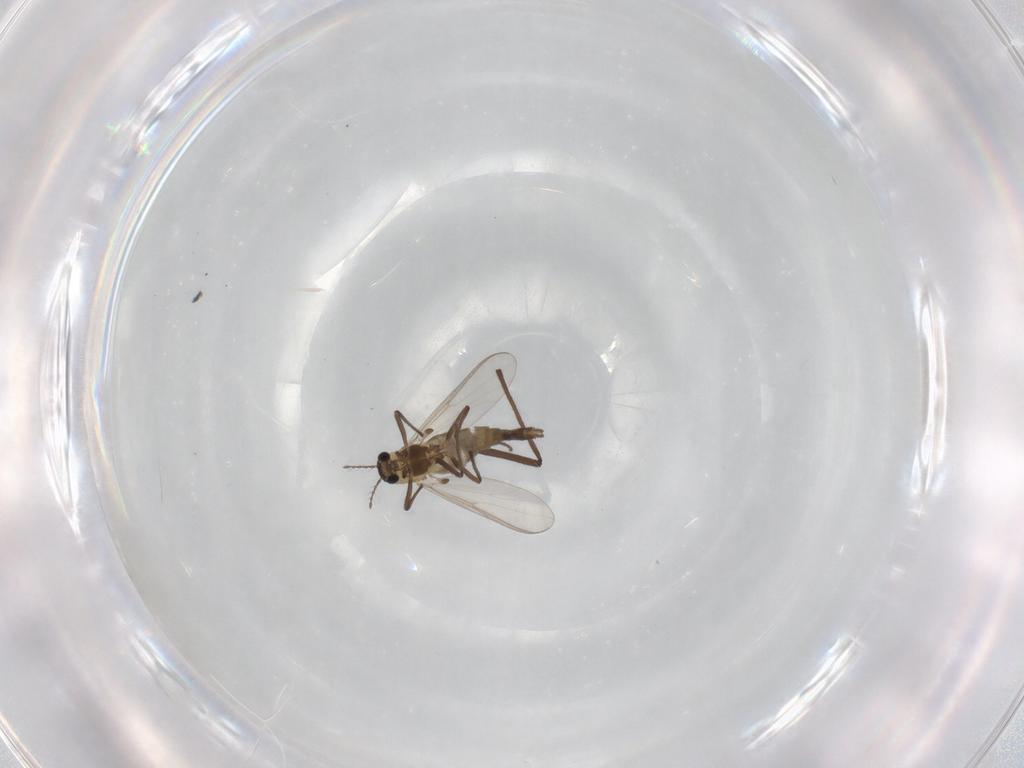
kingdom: Animalia
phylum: Arthropoda
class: Insecta
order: Diptera
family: Chironomidae
